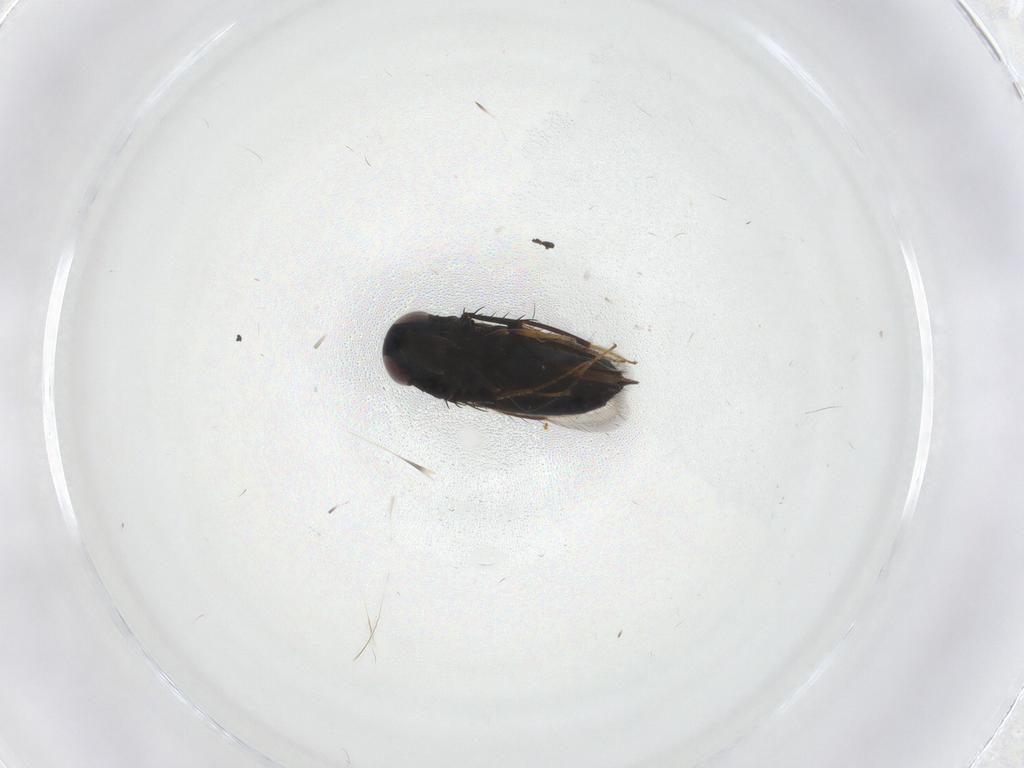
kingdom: Animalia
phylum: Arthropoda
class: Insecta
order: Hymenoptera
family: Signiphoridae
